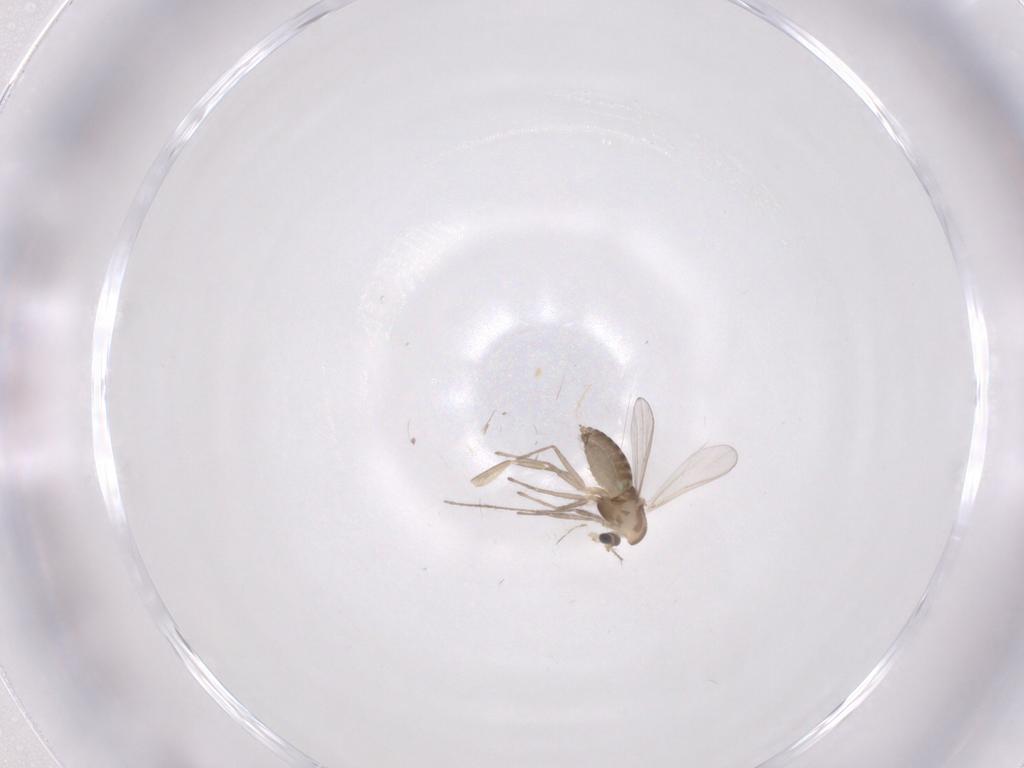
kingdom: Animalia
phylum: Arthropoda
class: Insecta
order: Diptera
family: Chironomidae
